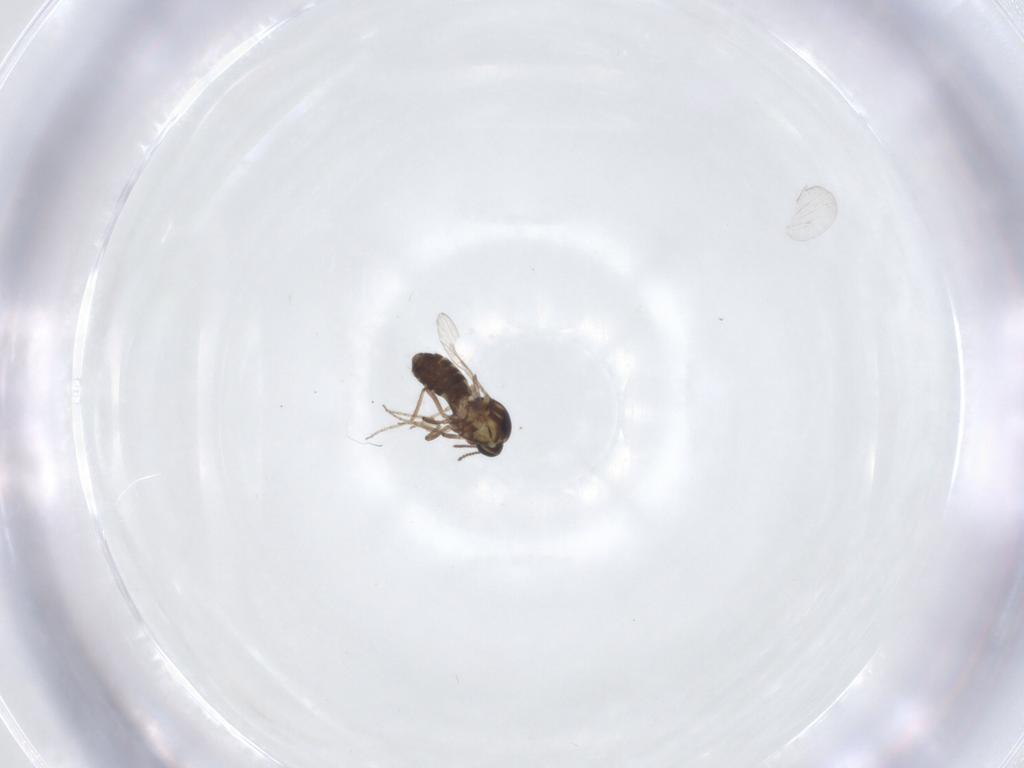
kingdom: Animalia
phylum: Arthropoda
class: Insecta
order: Diptera
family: Ceratopogonidae
